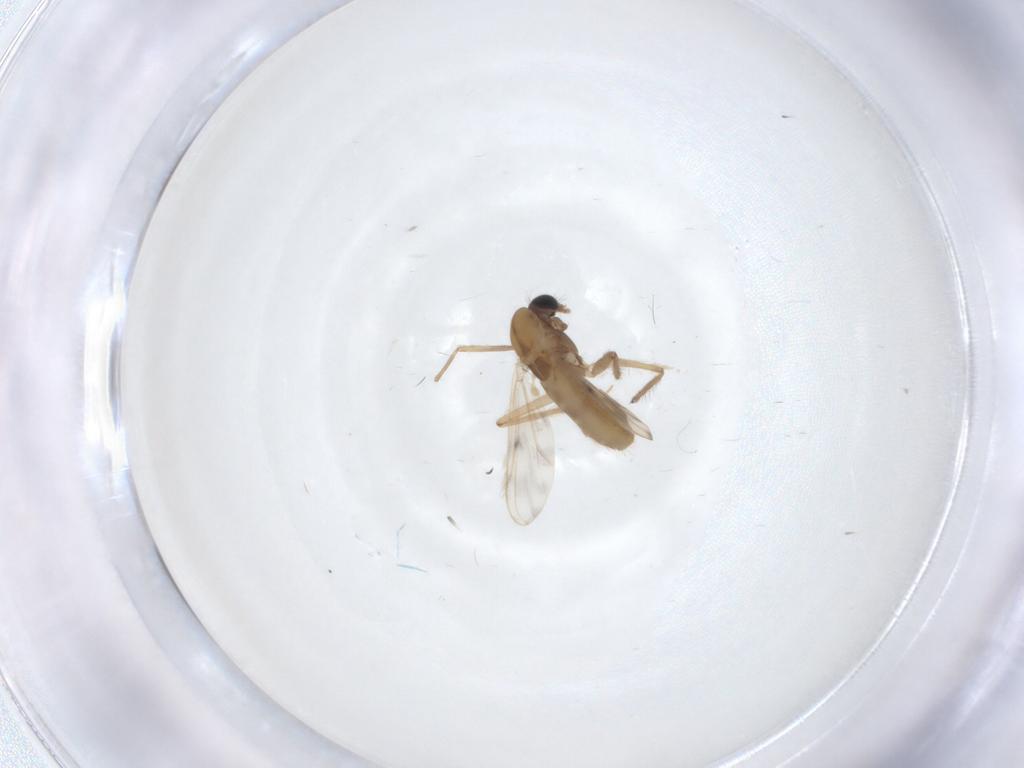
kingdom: Animalia
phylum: Arthropoda
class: Insecta
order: Diptera
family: Chironomidae
